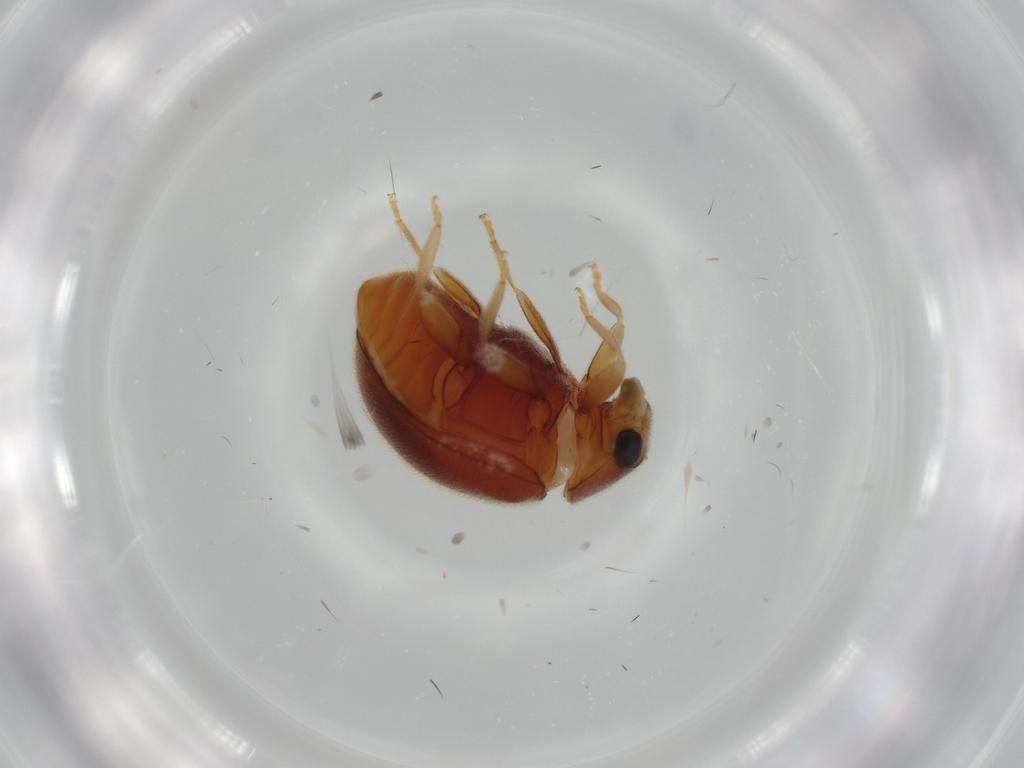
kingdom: Animalia
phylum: Arthropoda
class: Insecta
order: Coleoptera
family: Coccinellidae
